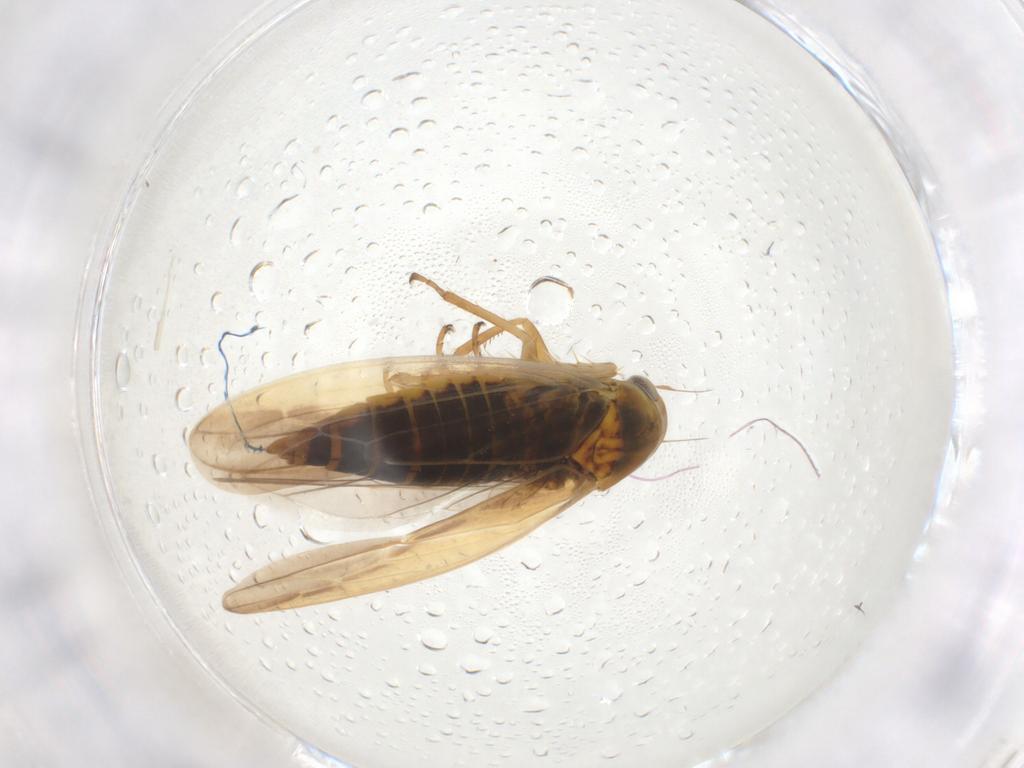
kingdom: Animalia
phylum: Arthropoda
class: Insecta
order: Hemiptera
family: Cicadellidae
